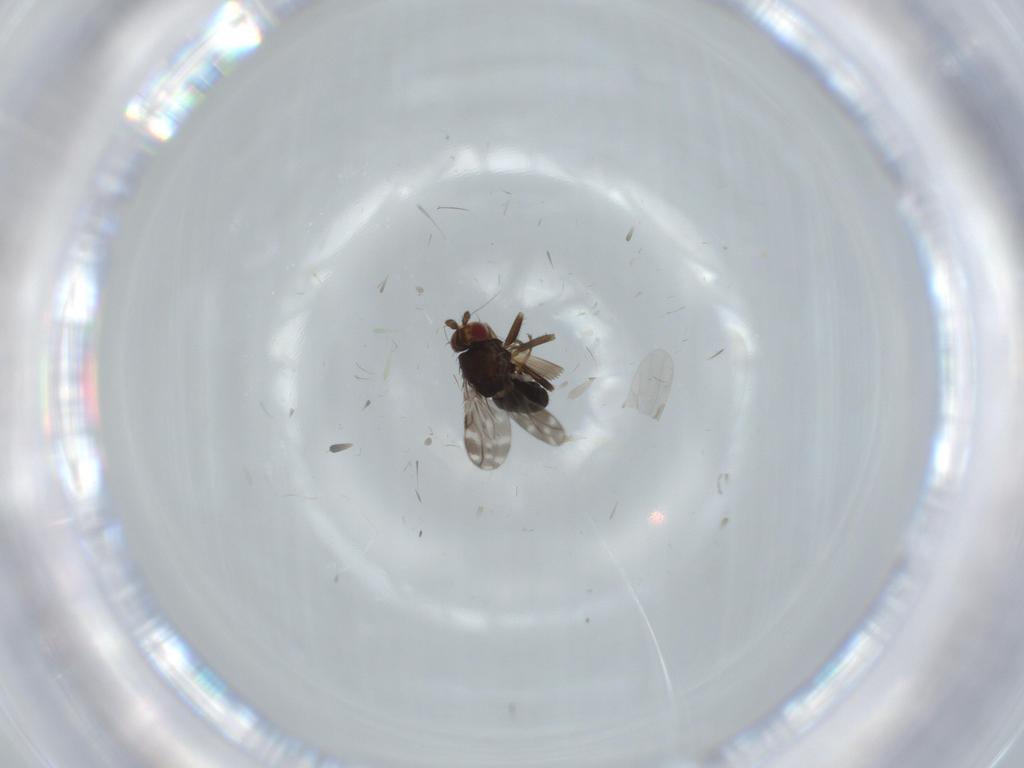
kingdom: Animalia
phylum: Arthropoda
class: Insecta
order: Diptera
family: Sphaeroceridae
